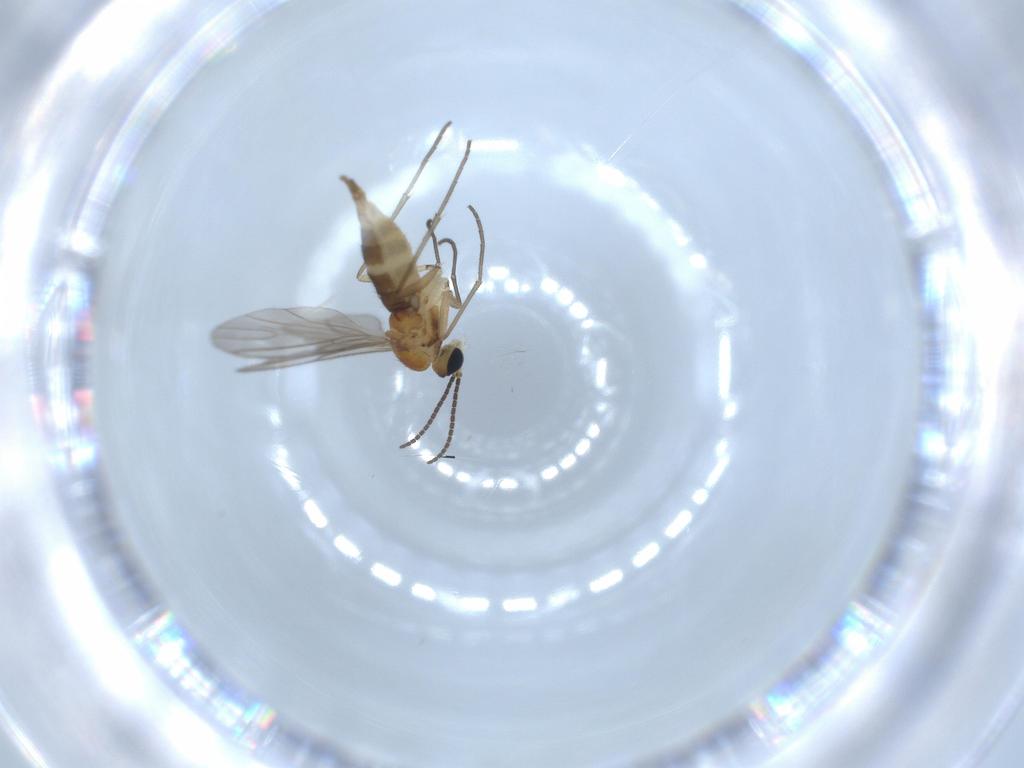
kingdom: Animalia
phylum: Arthropoda
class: Insecta
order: Diptera
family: Sciaridae
